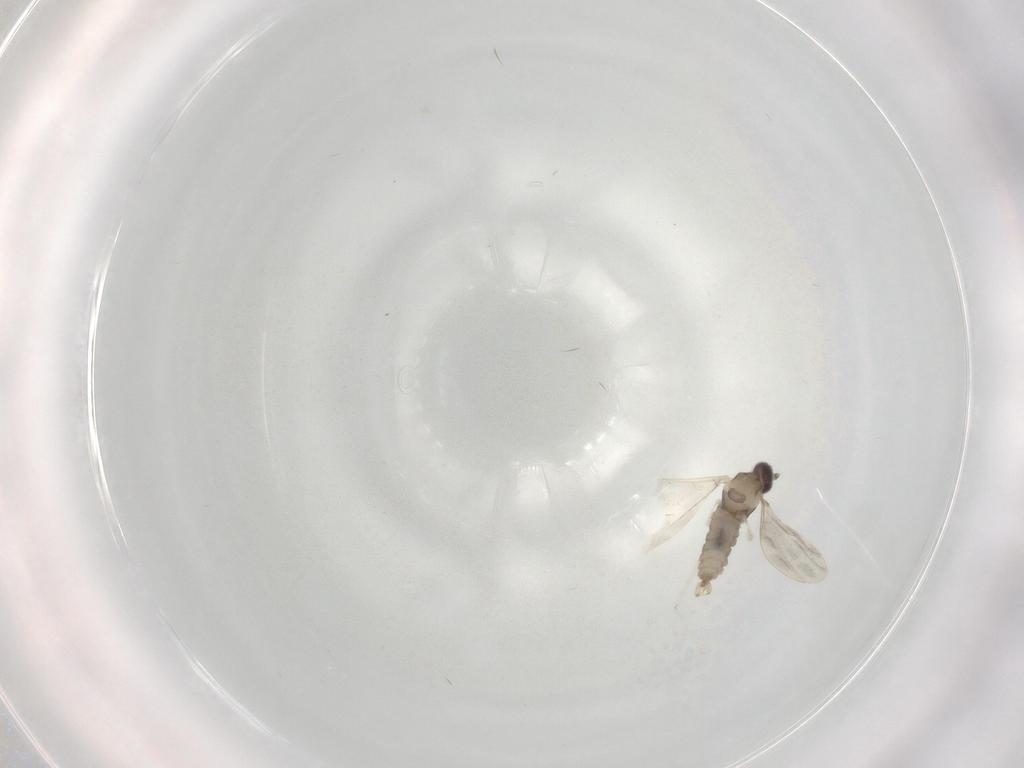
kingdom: Animalia
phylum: Arthropoda
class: Insecta
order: Diptera
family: Cecidomyiidae
